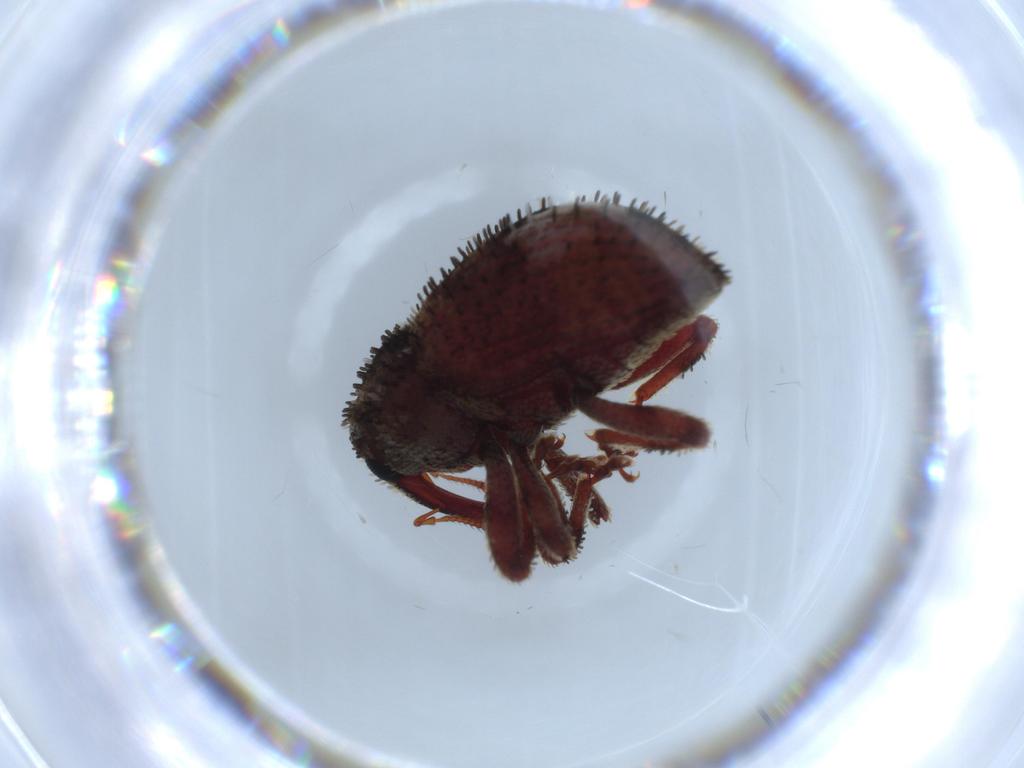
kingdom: Animalia
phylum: Arthropoda
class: Insecta
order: Coleoptera
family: Curculionidae
